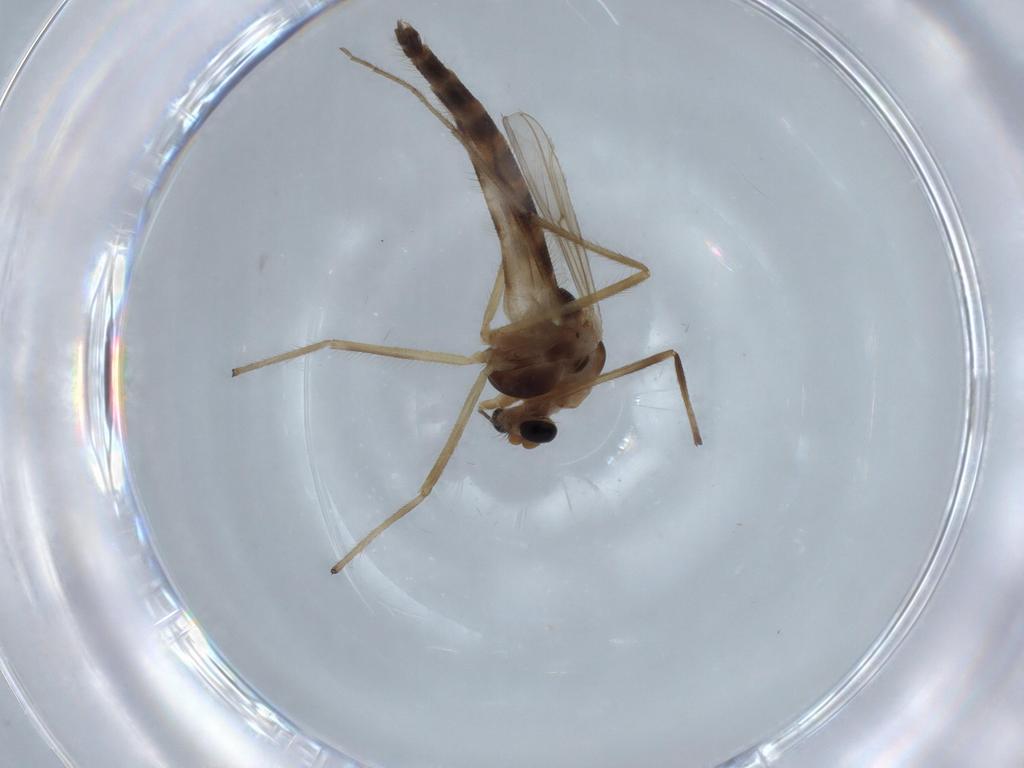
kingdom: Animalia
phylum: Arthropoda
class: Insecta
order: Diptera
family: Chironomidae
